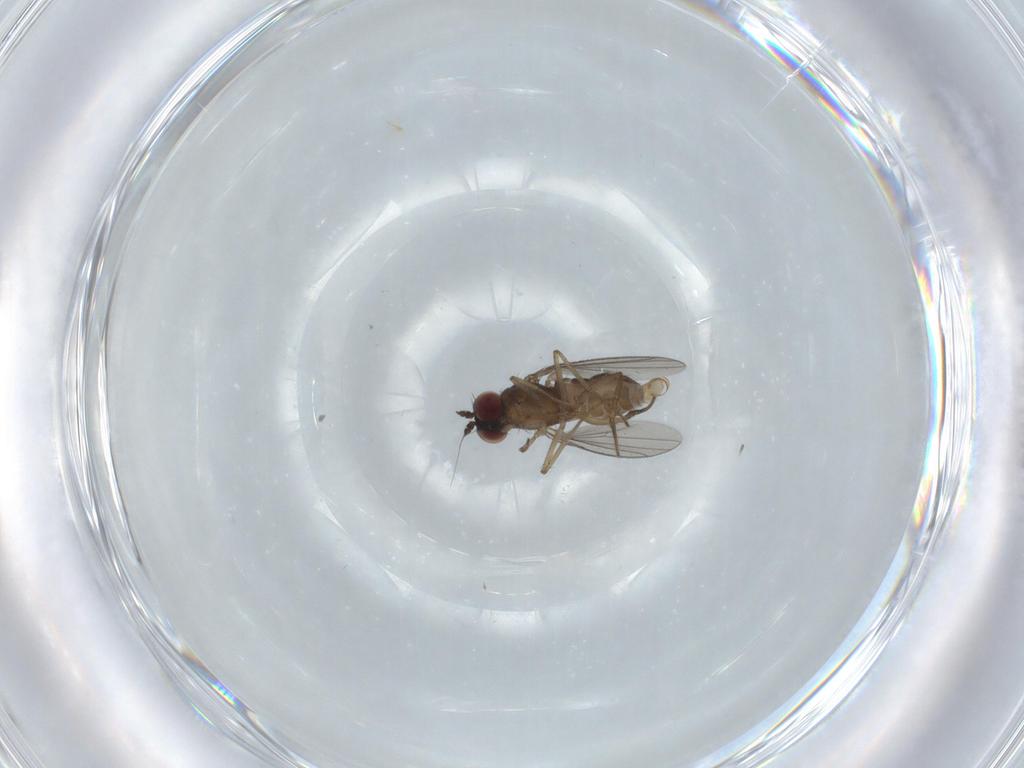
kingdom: Animalia
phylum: Arthropoda
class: Insecta
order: Diptera
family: Dolichopodidae
